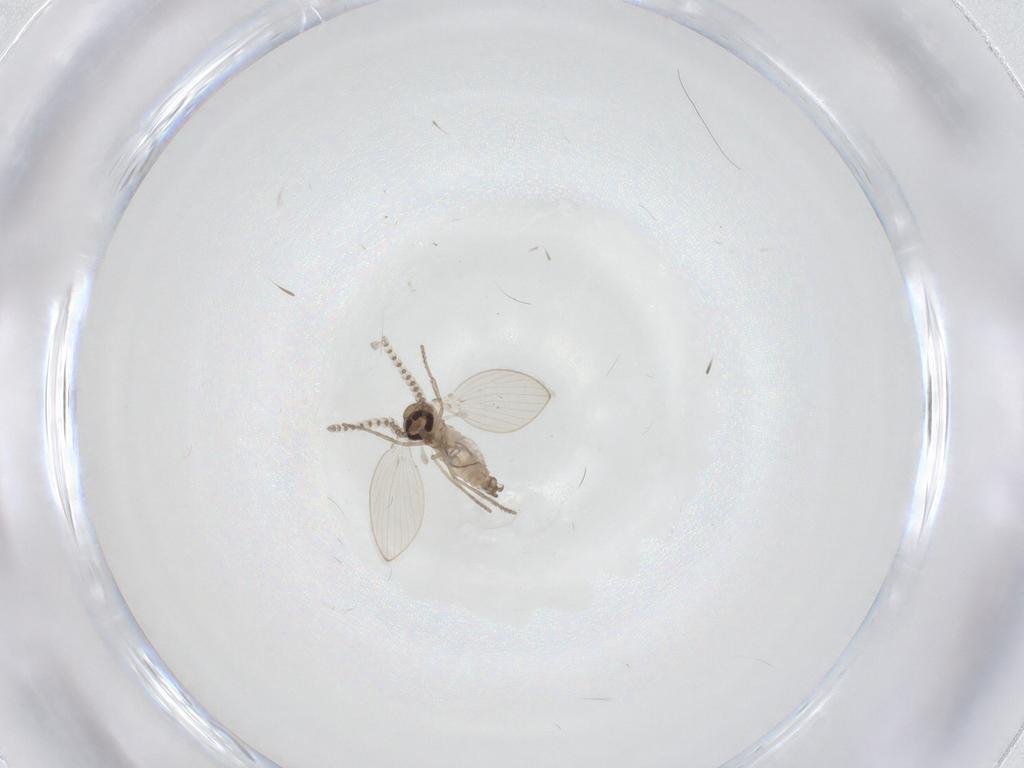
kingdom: Animalia
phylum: Arthropoda
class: Insecta
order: Diptera
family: Psychodidae
